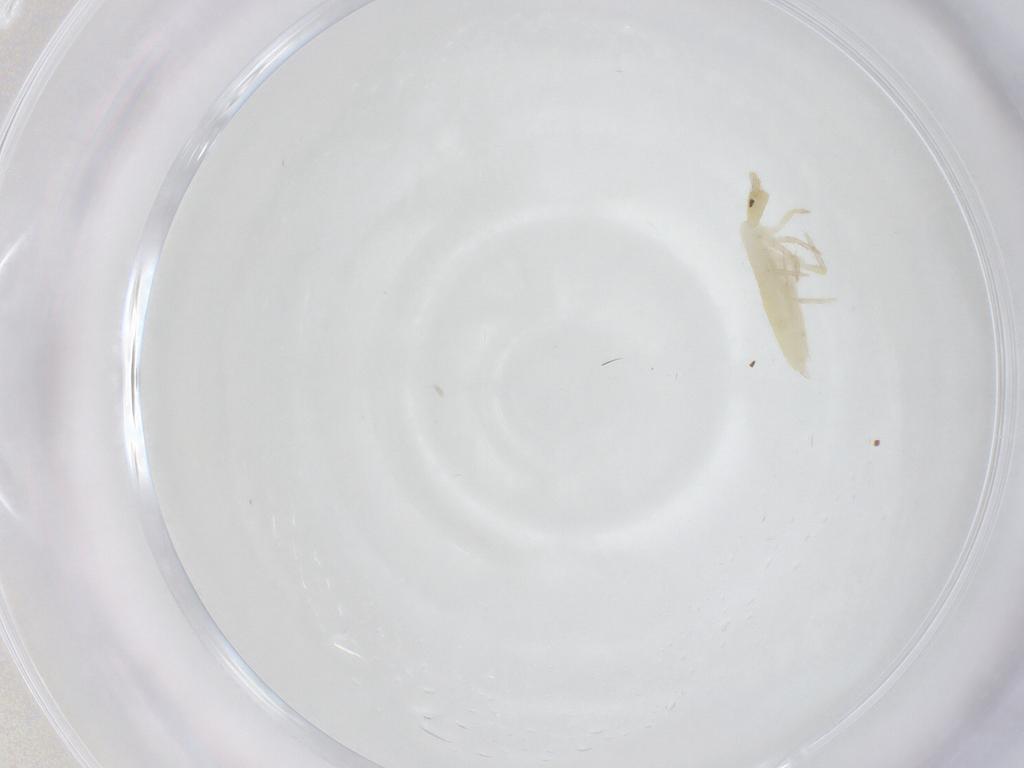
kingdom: Animalia
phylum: Arthropoda
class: Collembola
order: Entomobryomorpha
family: Entomobryidae
